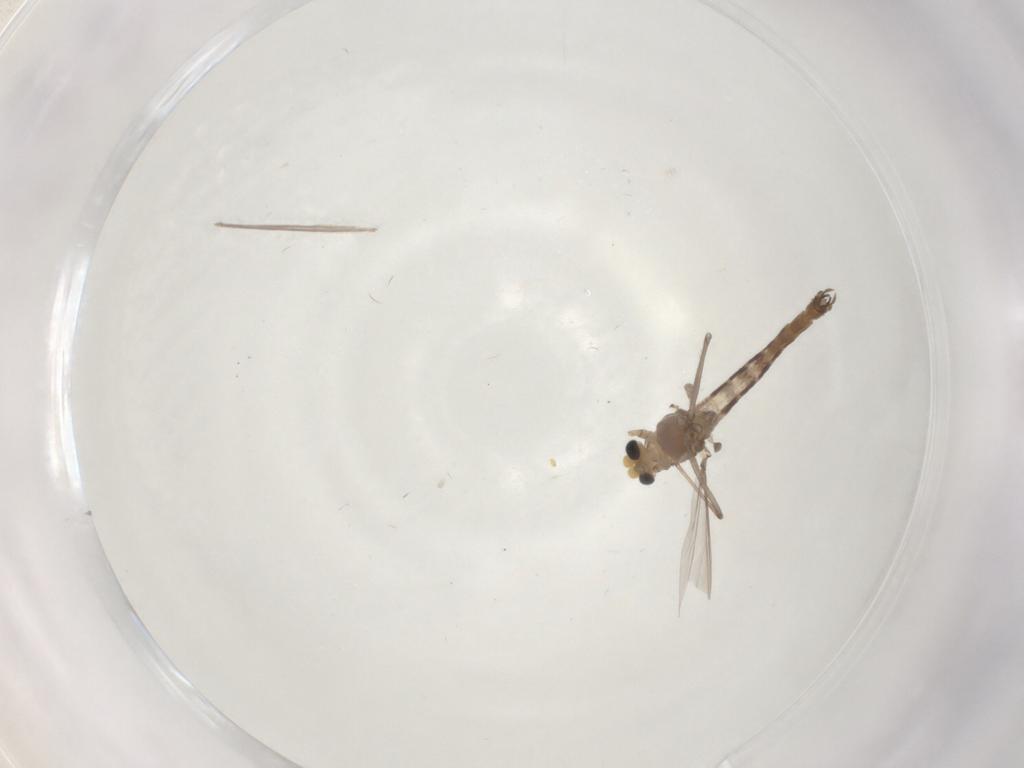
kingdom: Animalia
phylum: Arthropoda
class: Insecta
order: Diptera
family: Chironomidae
